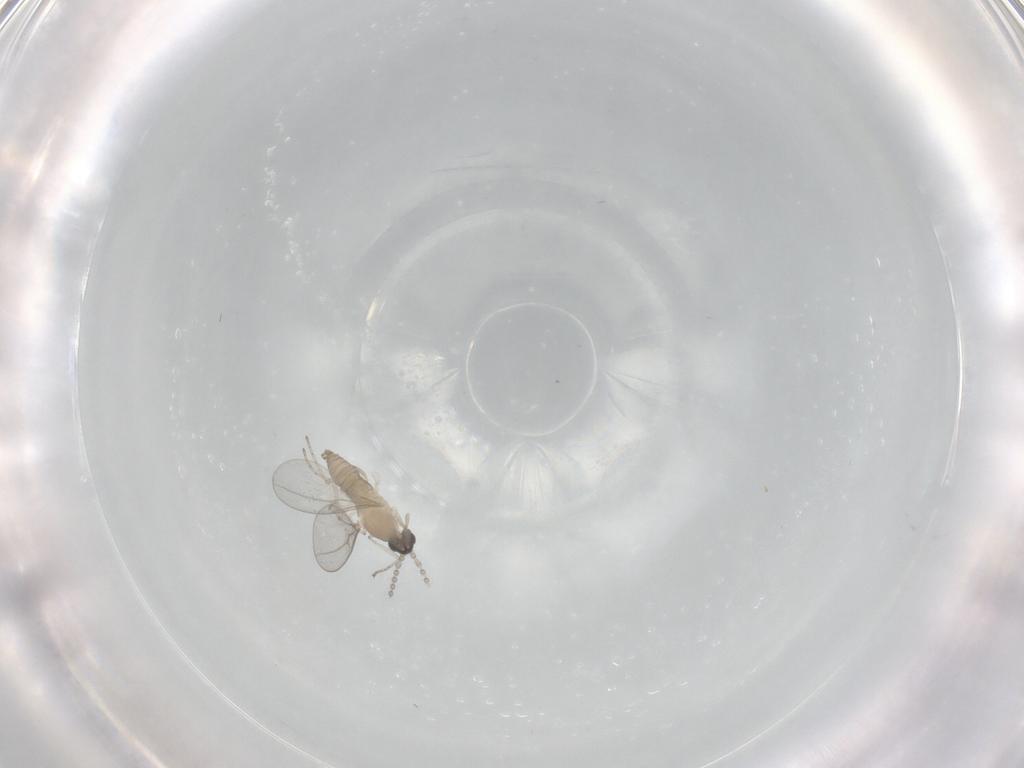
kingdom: Animalia
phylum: Arthropoda
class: Insecta
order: Diptera
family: Cecidomyiidae
